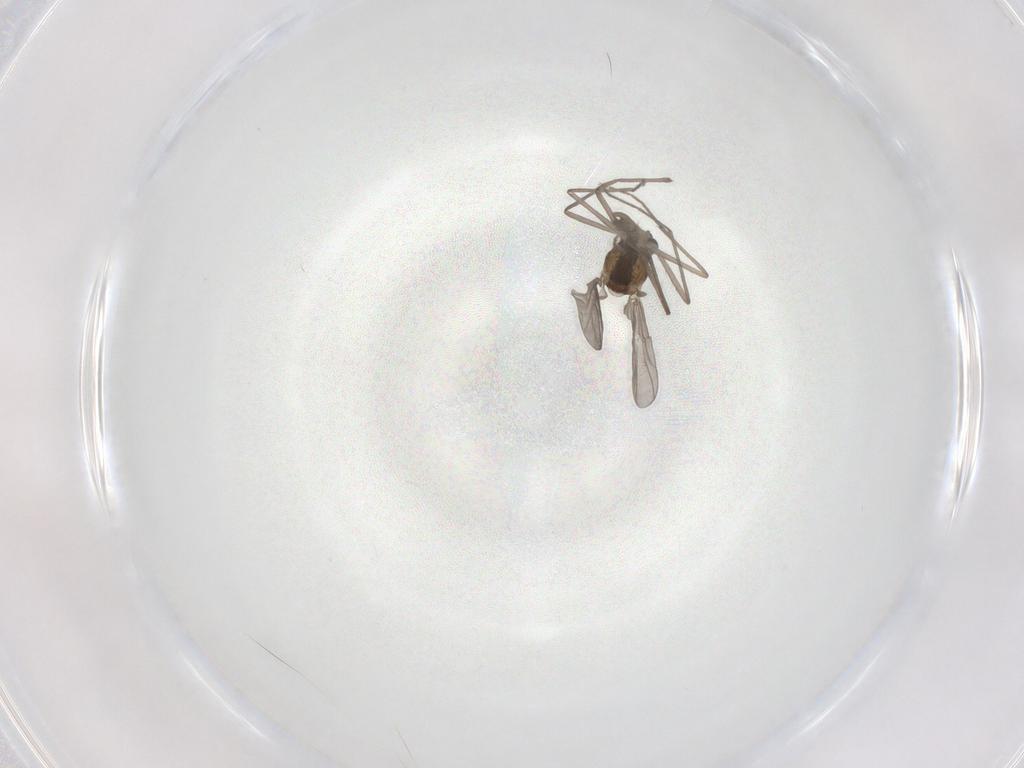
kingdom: Animalia
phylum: Arthropoda
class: Insecta
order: Diptera
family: Chironomidae
